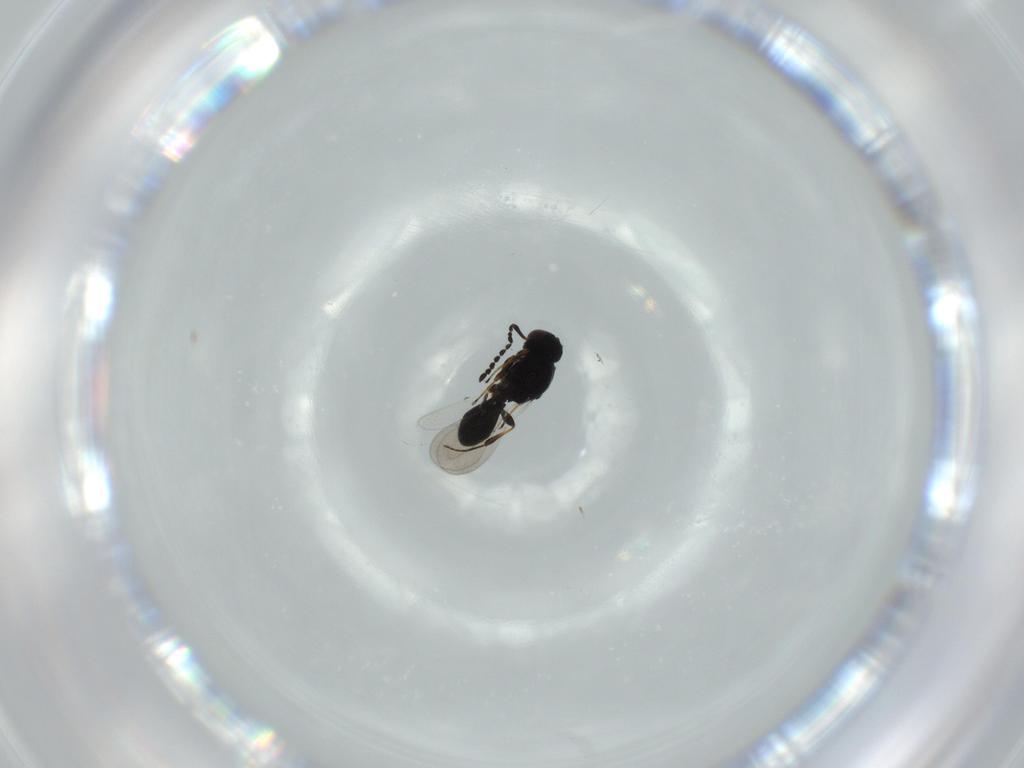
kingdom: Animalia
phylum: Arthropoda
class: Insecta
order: Hymenoptera
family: Platygastridae
